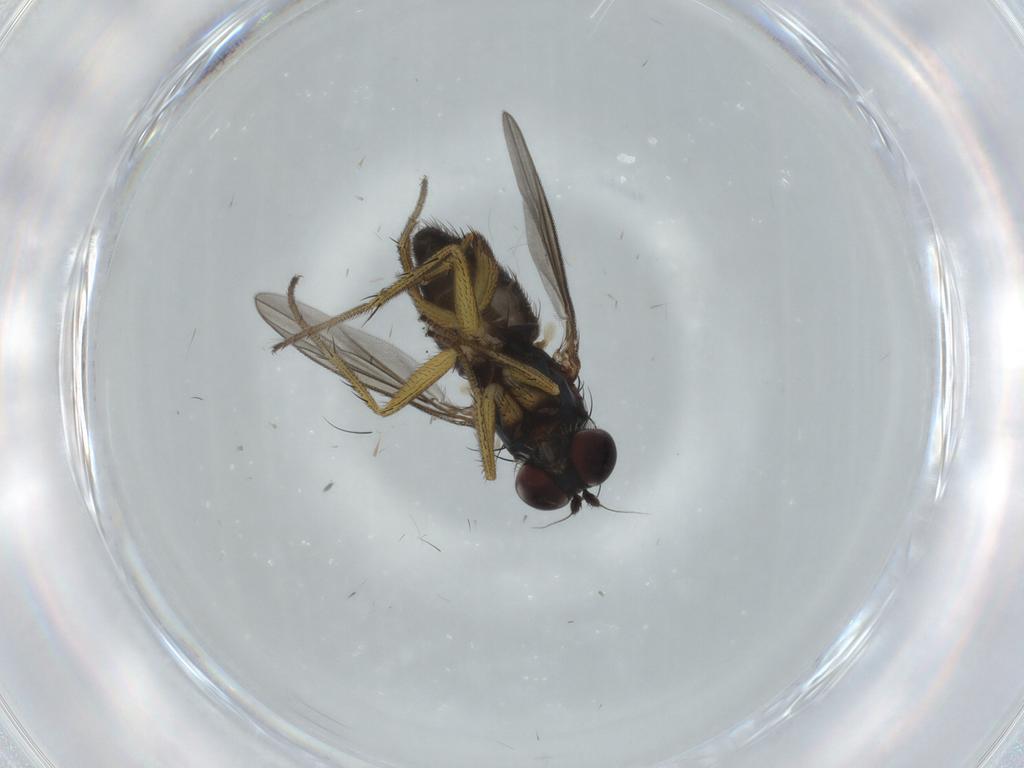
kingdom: Animalia
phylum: Arthropoda
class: Insecta
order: Diptera
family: Dolichopodidae
